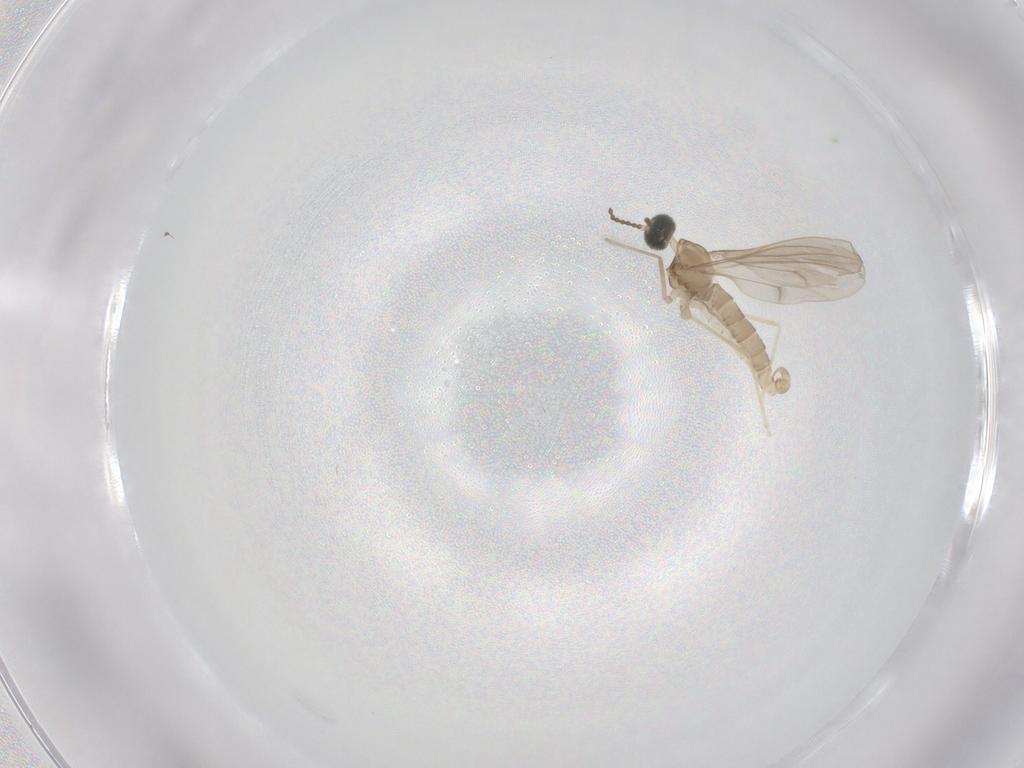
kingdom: Animalia
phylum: Arthropoda
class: Insecta
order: Diptera
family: Cecidomyiidae
